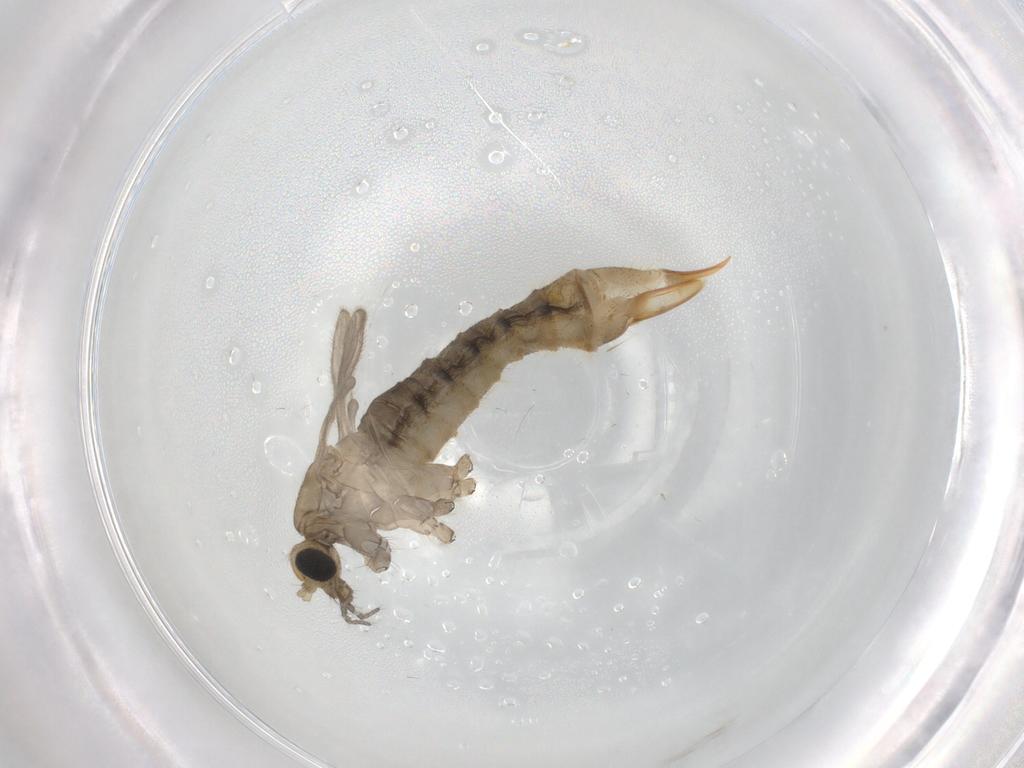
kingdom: Animalia
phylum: Arthropoda
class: Insecta
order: Diptera
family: Limoniidae
